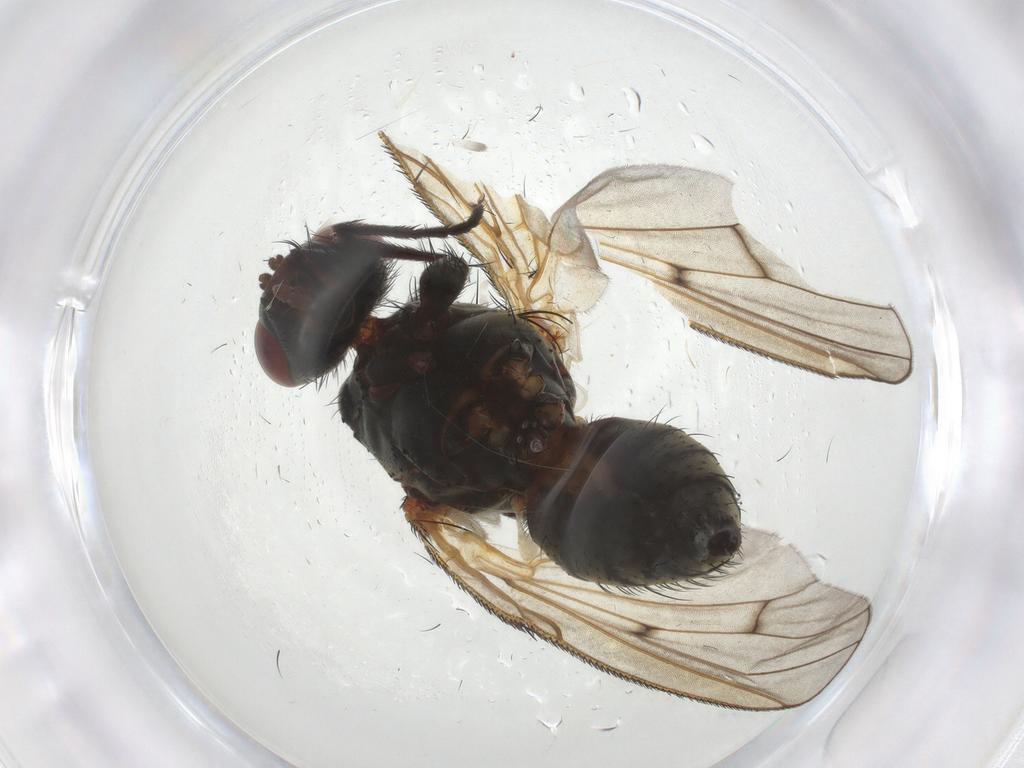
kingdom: Animalia
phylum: Arthropoda
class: Insecta
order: Diptera
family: Anthomyiidae
